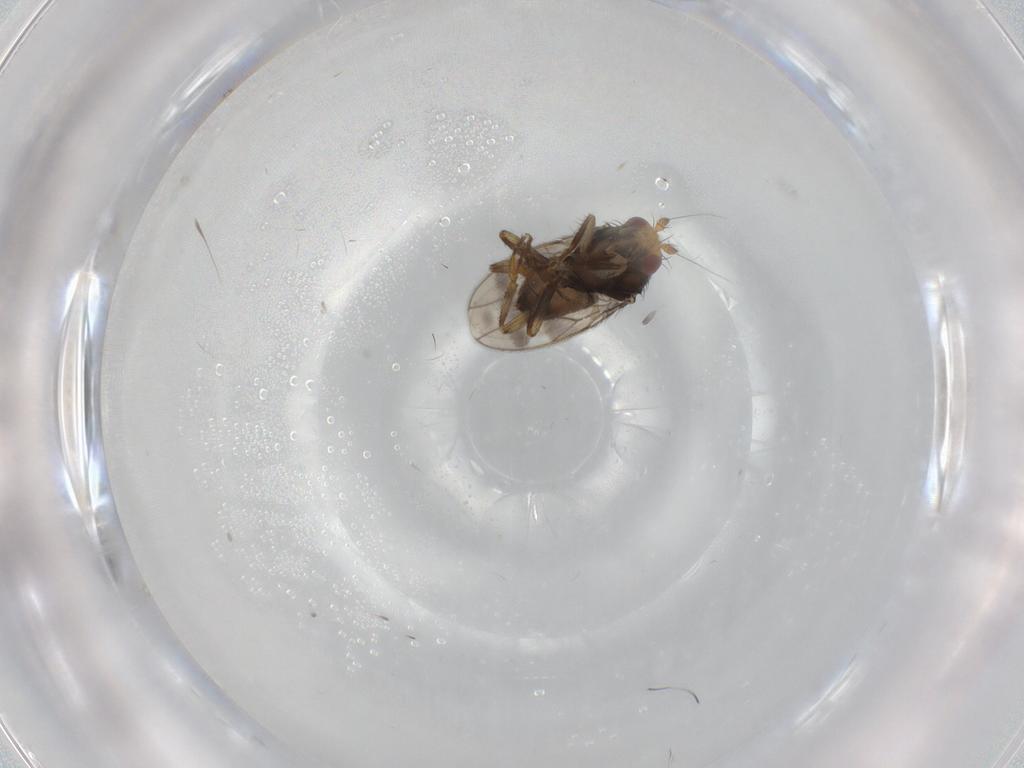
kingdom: Animalia
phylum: Arthropoda
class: Insecta
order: Diptera
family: Sphaeroceridae
